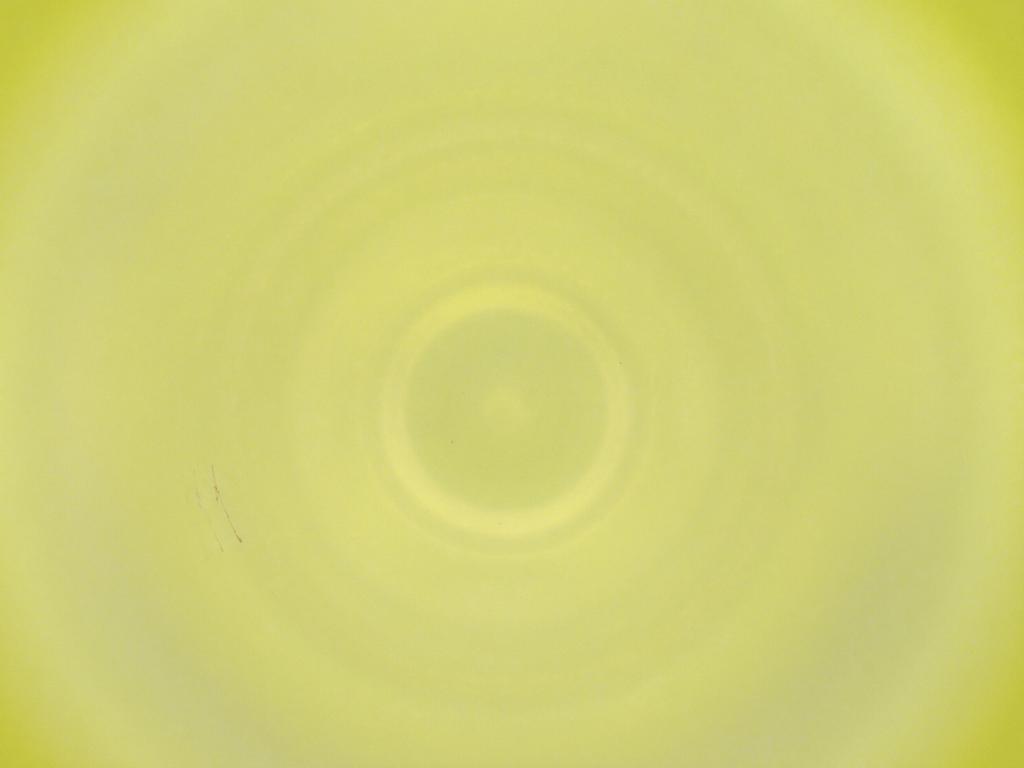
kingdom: Animalia
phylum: Arthropoda
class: Insecta
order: Diptera
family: Cecidomyiidae
